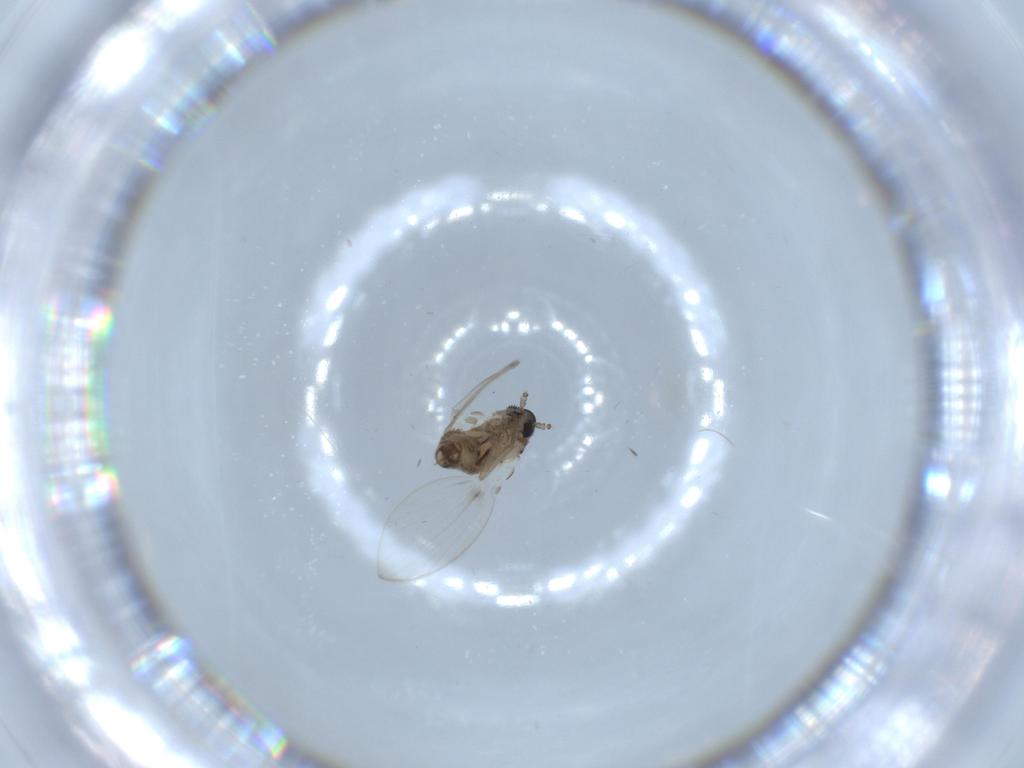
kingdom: Animalia
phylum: Arthropoda
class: Insecta
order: Diptera
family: Psychodidae
